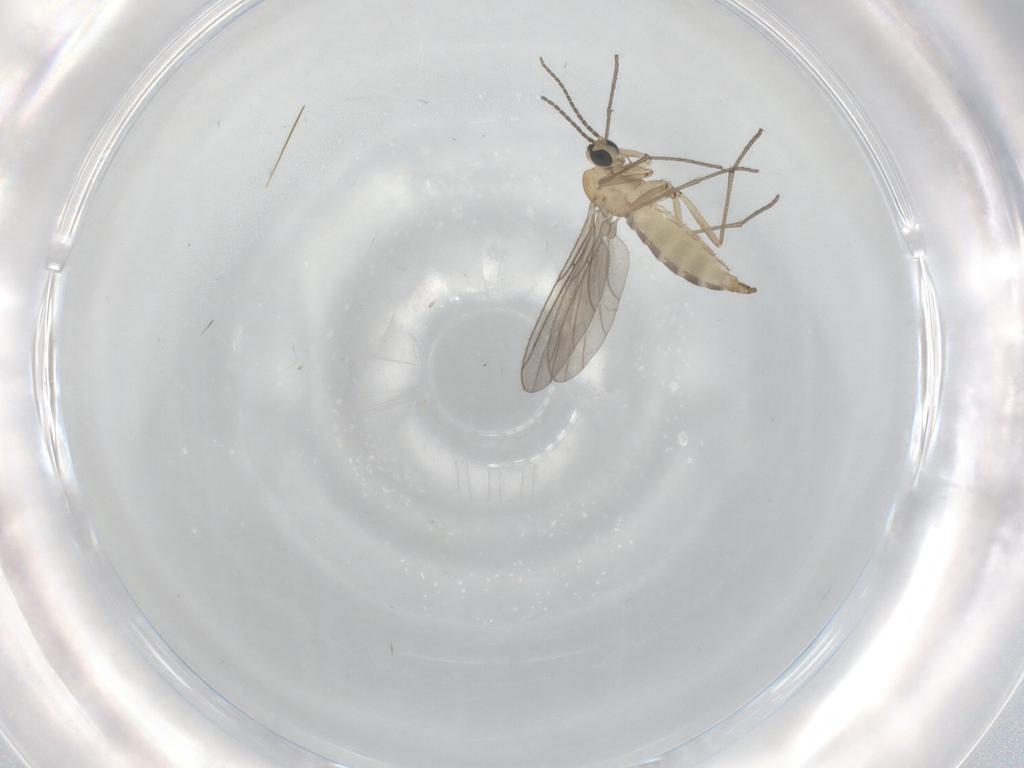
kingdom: Animalia
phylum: Arthropoda
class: Insecta
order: Diptera
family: Sciaridae
